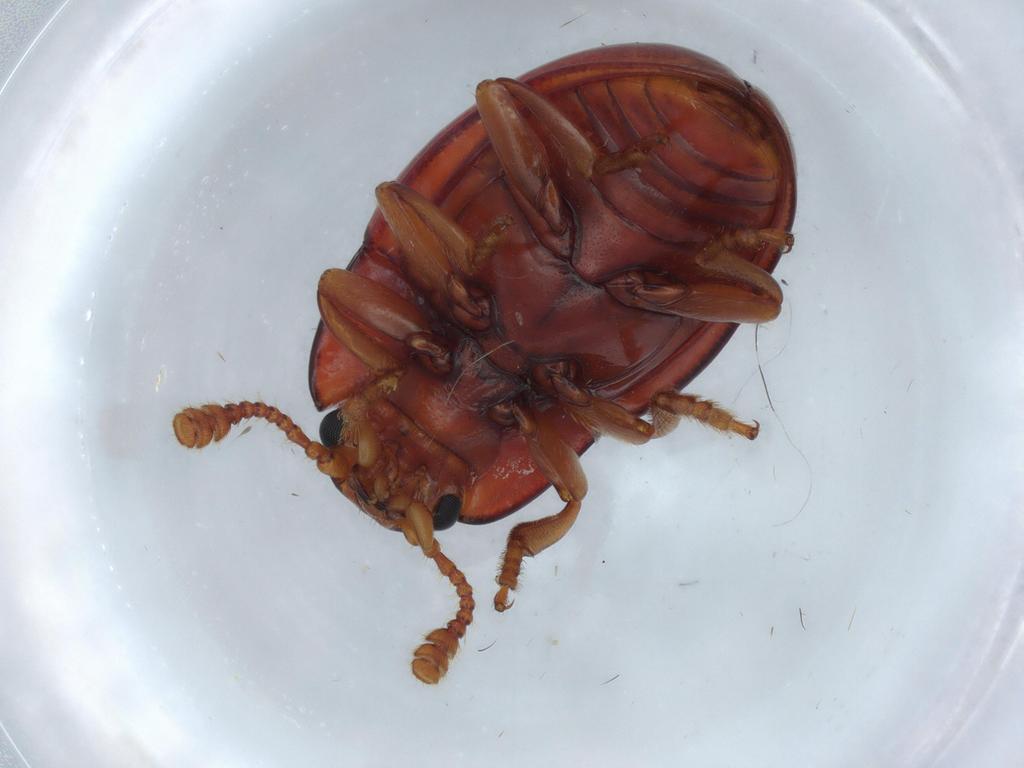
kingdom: Animalia
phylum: Arthropoda
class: Insecta
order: Coleoptera
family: Erotylidae
